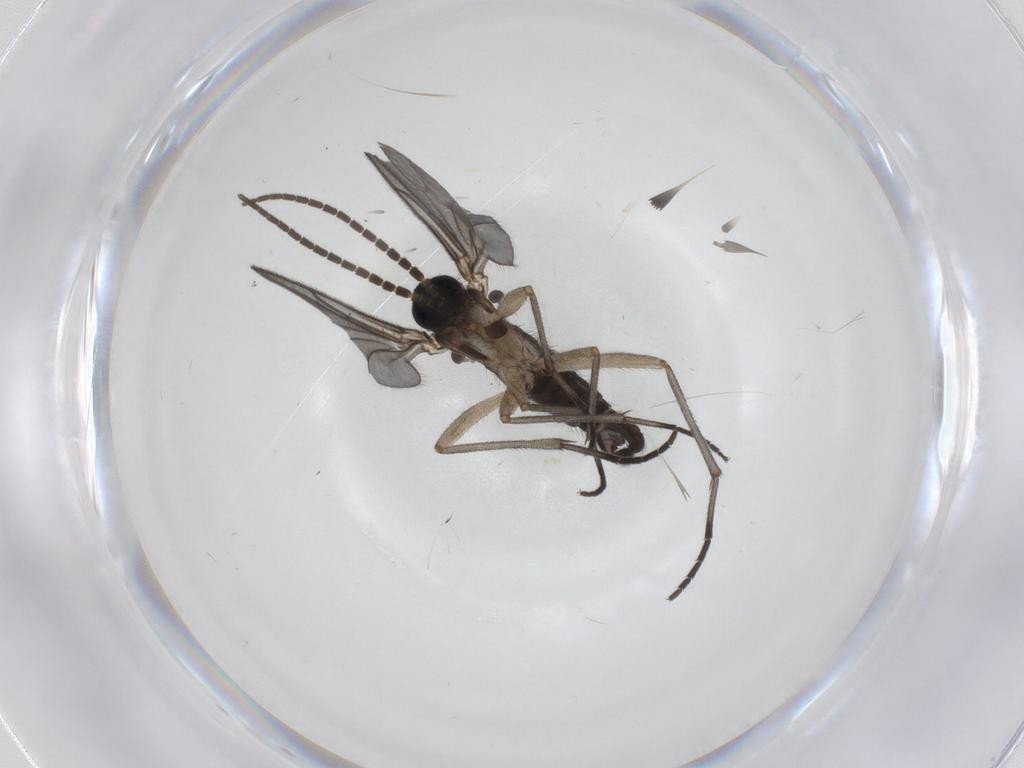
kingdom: Animalia
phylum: Arthropoda
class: Insecta
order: Diptera
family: Sciaridae
